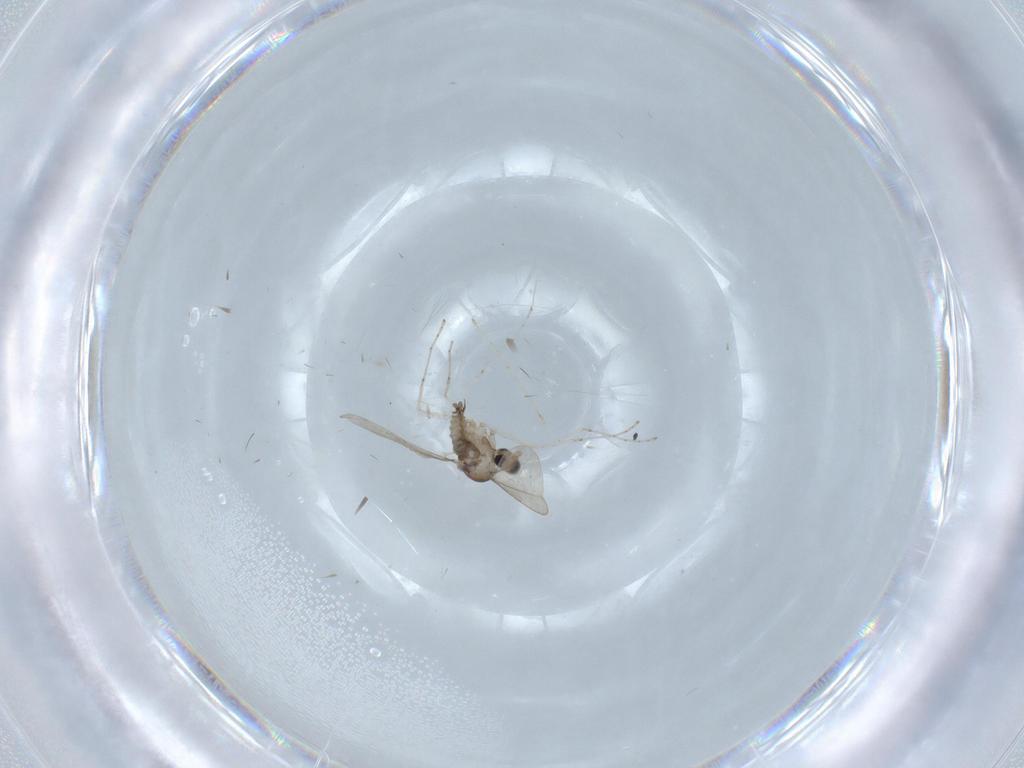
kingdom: Animalia
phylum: Arthropoda
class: Insecta
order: Diptera
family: Cecidomyiidae
